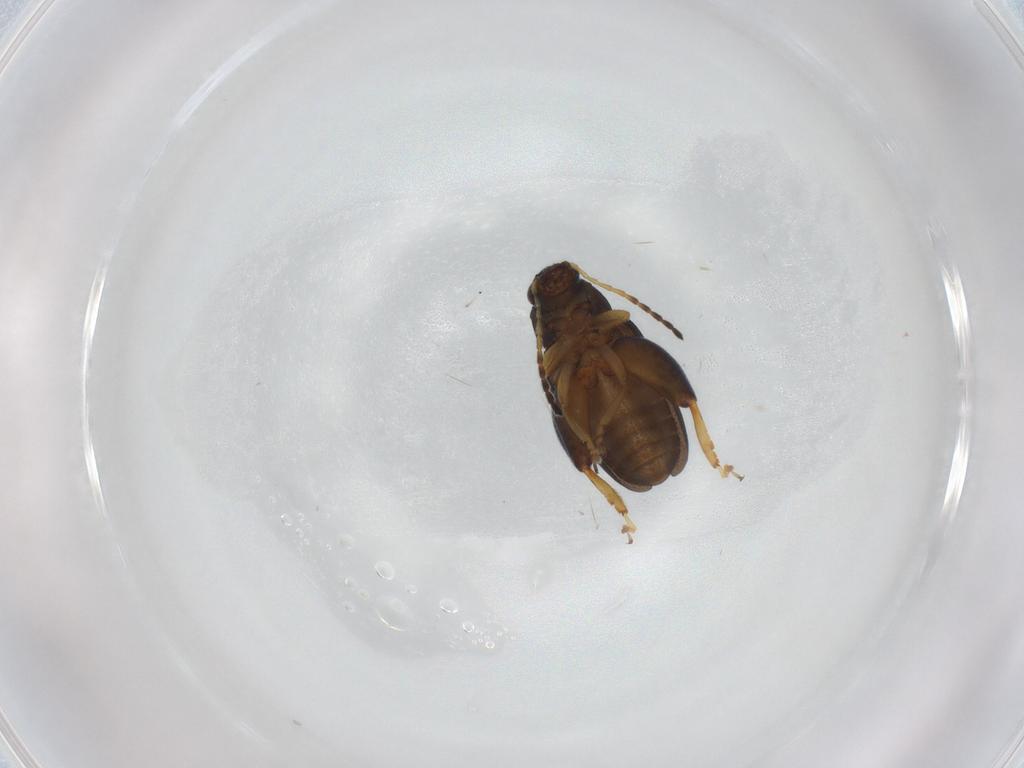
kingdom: Animalia
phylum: Arthropoda
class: Insecta
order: Coleoptera
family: Chrysomelidae
